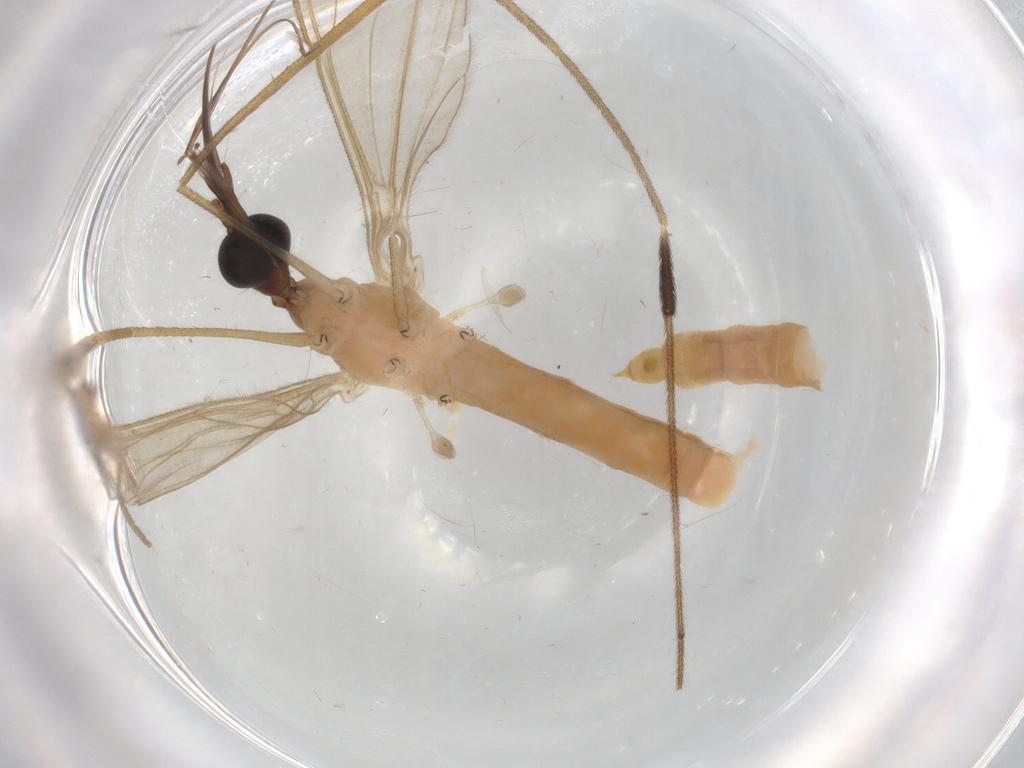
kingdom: Animalia
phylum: Arthropoda
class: Insecta
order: Diptera
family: Ceratopogonidae
